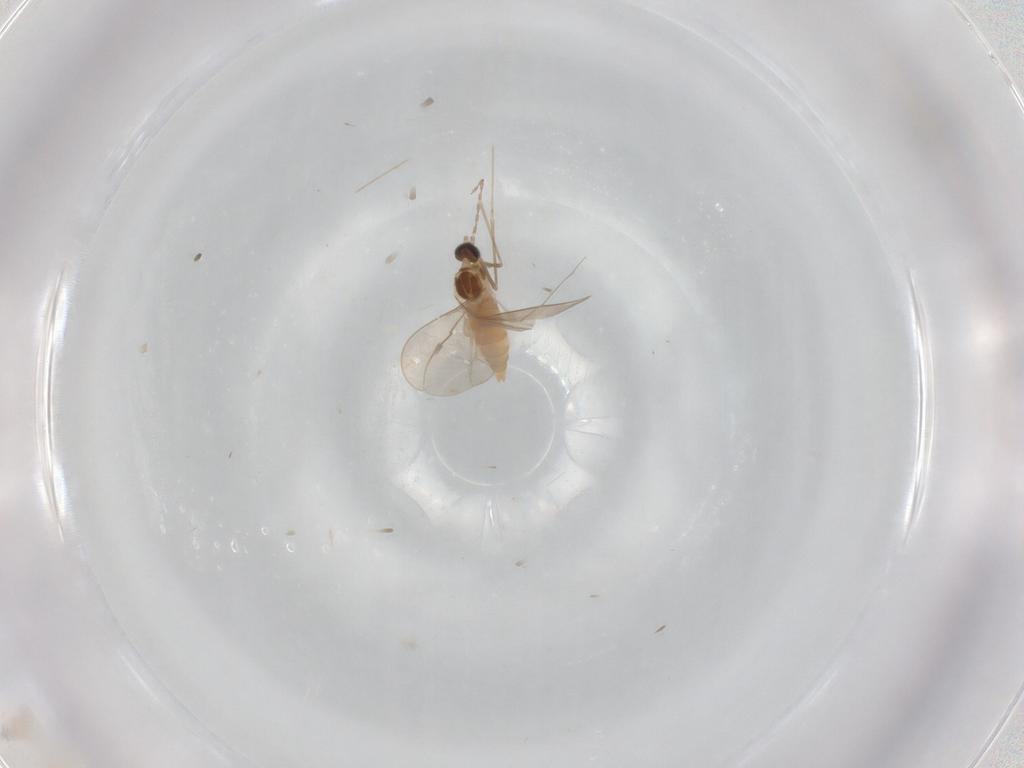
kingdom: Animalia
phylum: Arthropoda
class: Insecta
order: Diptera
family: Cecidomyiidae
